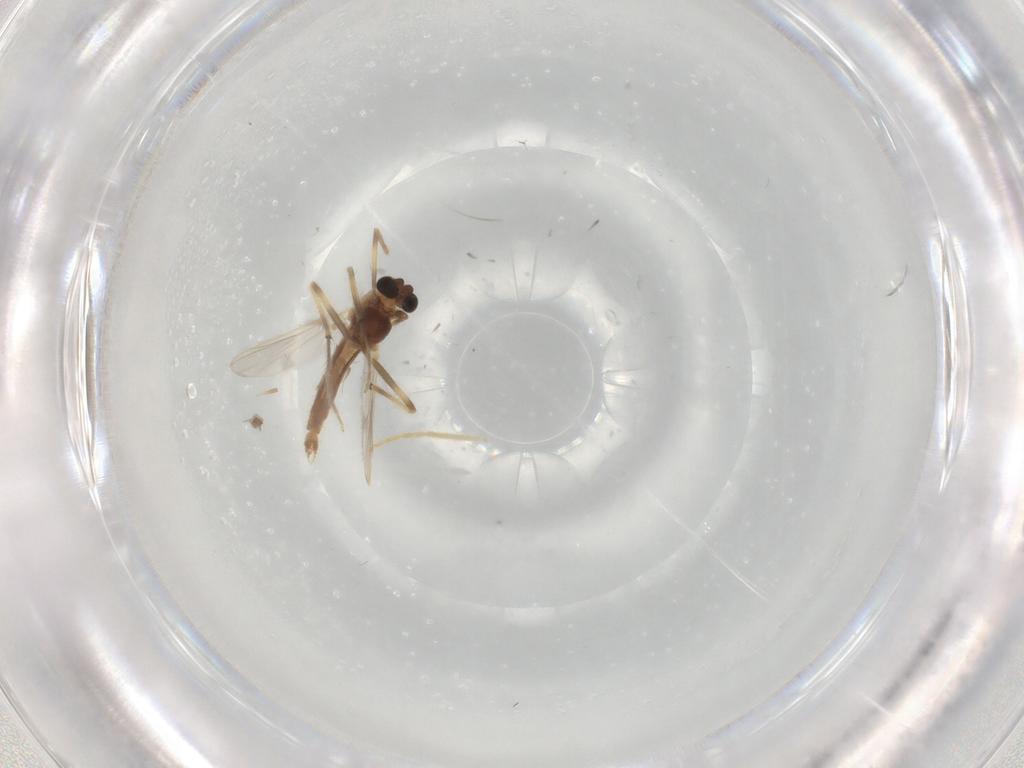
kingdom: Animalia
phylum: Arthropoda
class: Insecta
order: Diptera
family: Chironomidae
